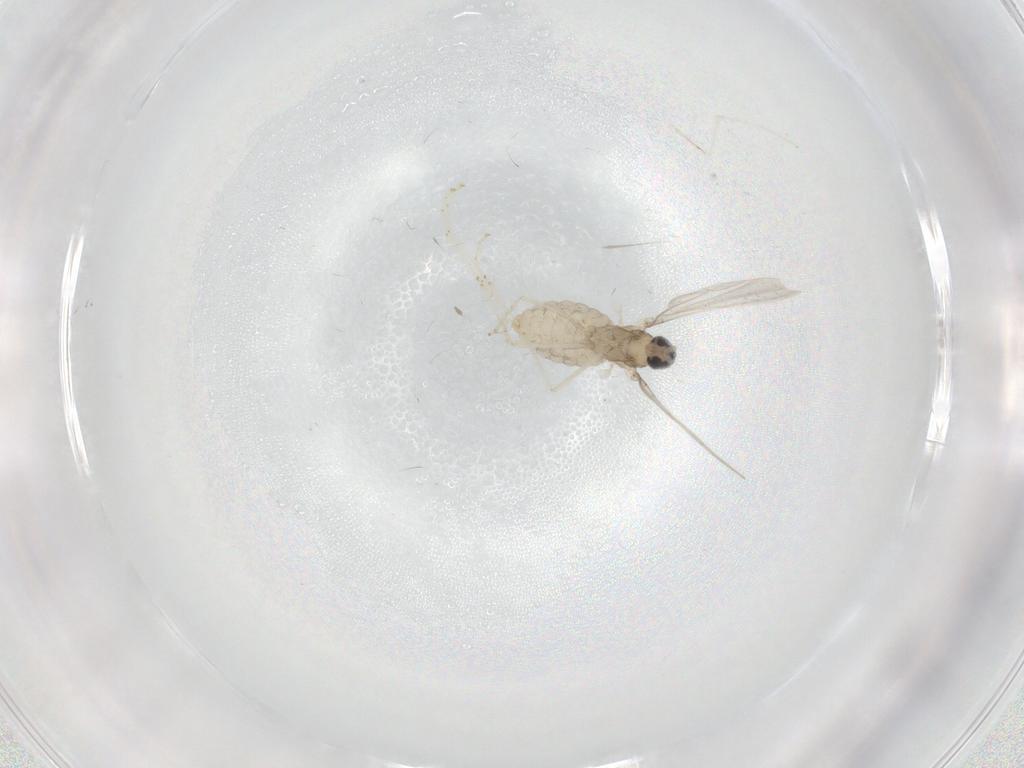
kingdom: Animalia
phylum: Arthropoda
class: Insecta
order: Diptera
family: Cecidomyiidae
